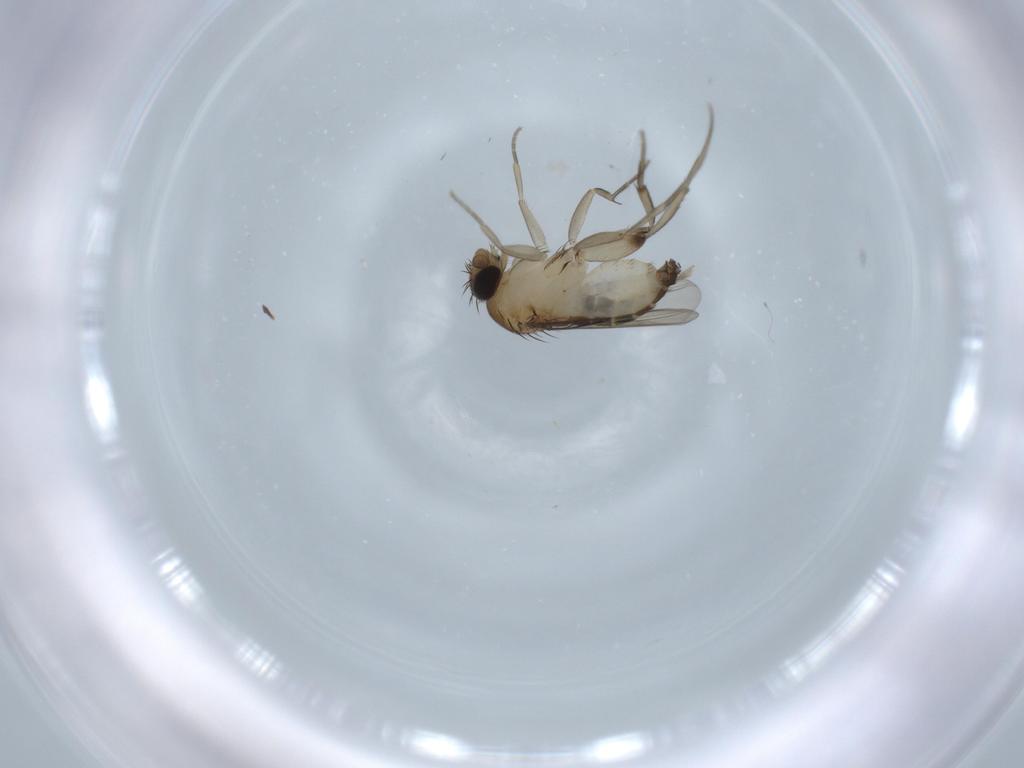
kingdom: Animalia
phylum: Arthropoda
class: Insecta
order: Diptera
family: Phoridae
